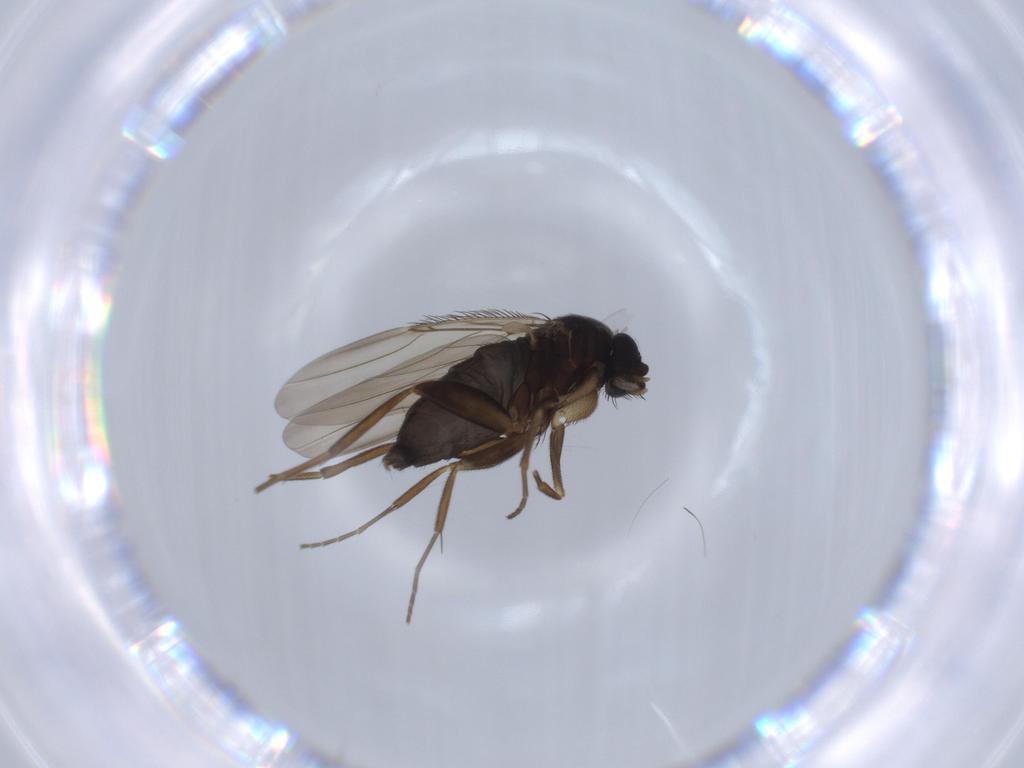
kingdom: Animalia
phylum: Arthropoda
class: Insecta
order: Diptera
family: Phoridae
